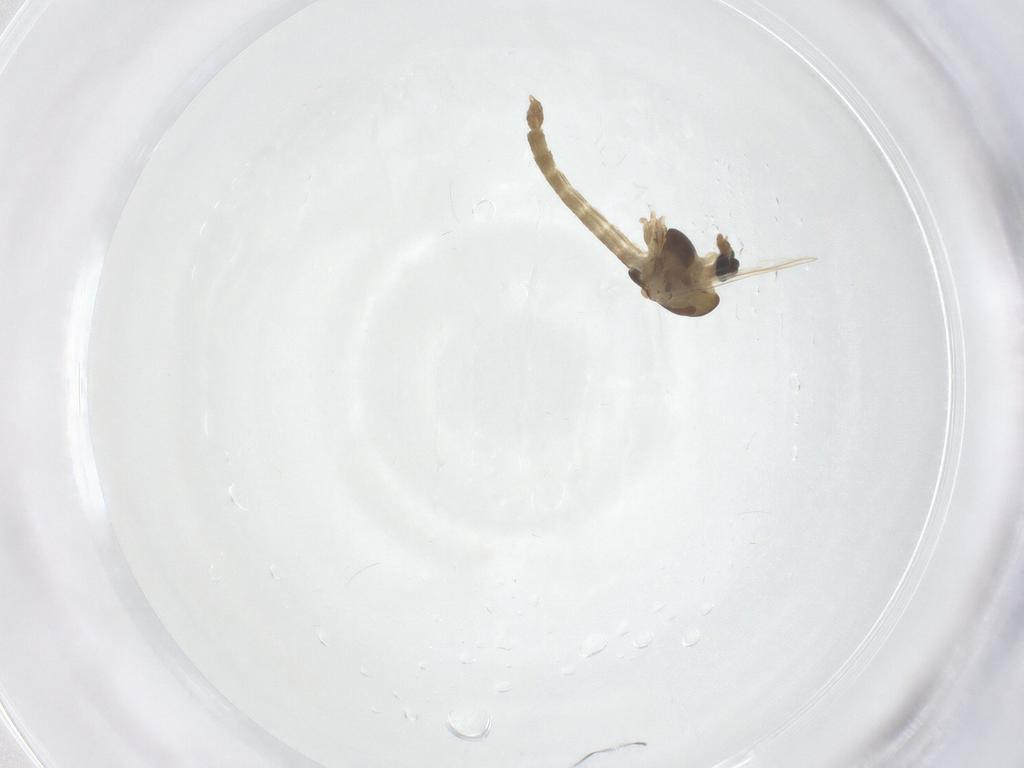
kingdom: Animalia
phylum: Arthropoda
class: Insecta
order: Diptera
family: Chironomidae
